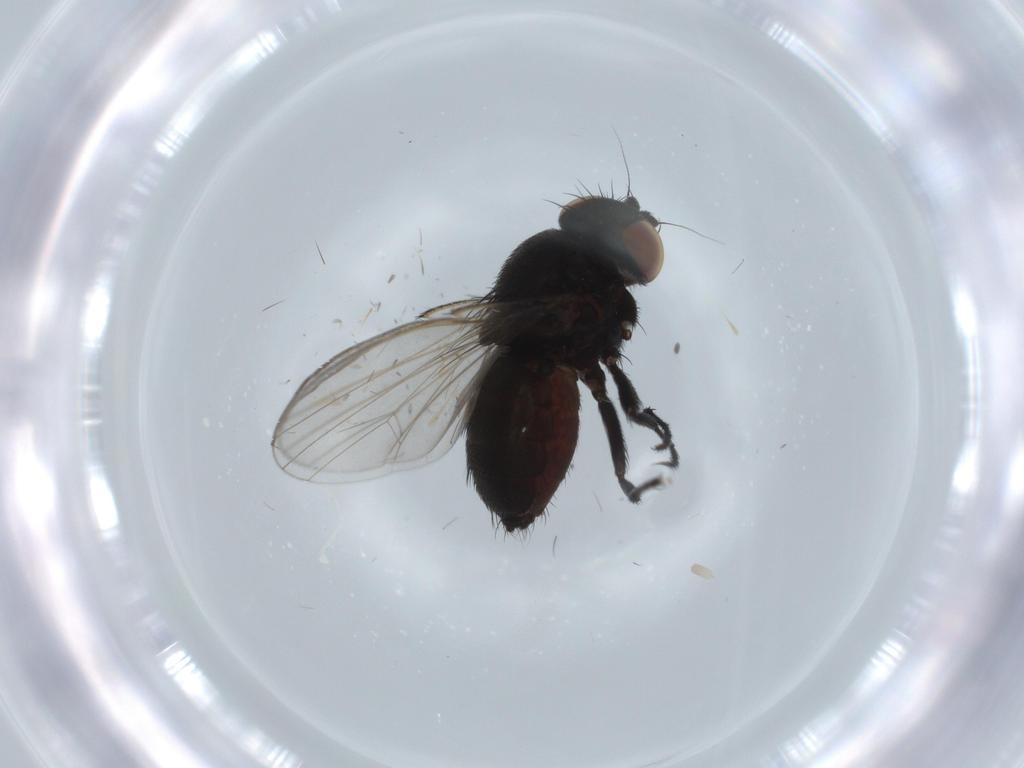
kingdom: Animalia
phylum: Arthropoda
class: Insecta
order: Diptera
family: Milichiidae
